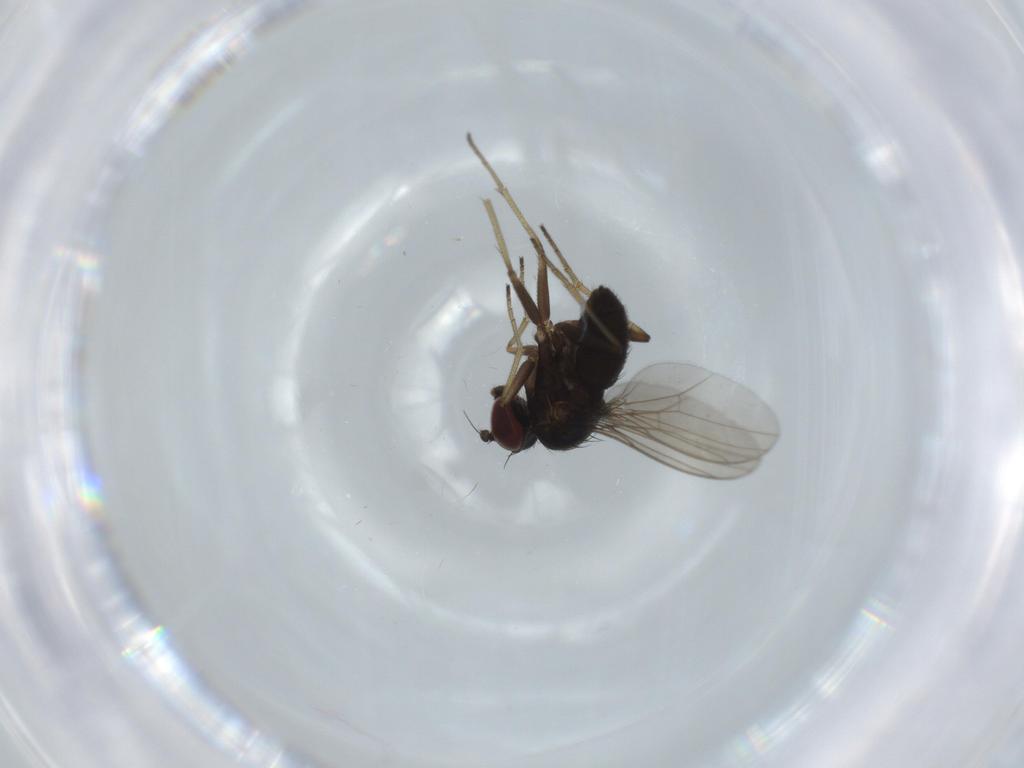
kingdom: Animalia
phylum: Arthropoda
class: Insecta
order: Diptera
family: Dolichopodidae
